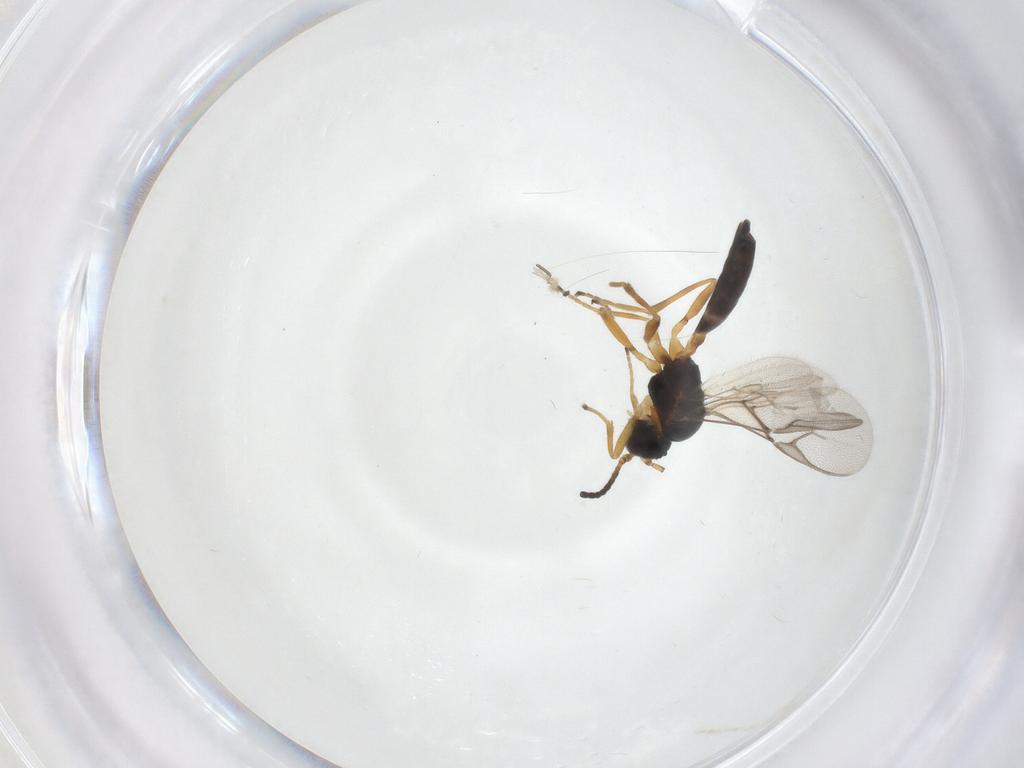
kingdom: Animalia
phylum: Arthropoda
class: Insecta
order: Hymenoptera
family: Braconidae
